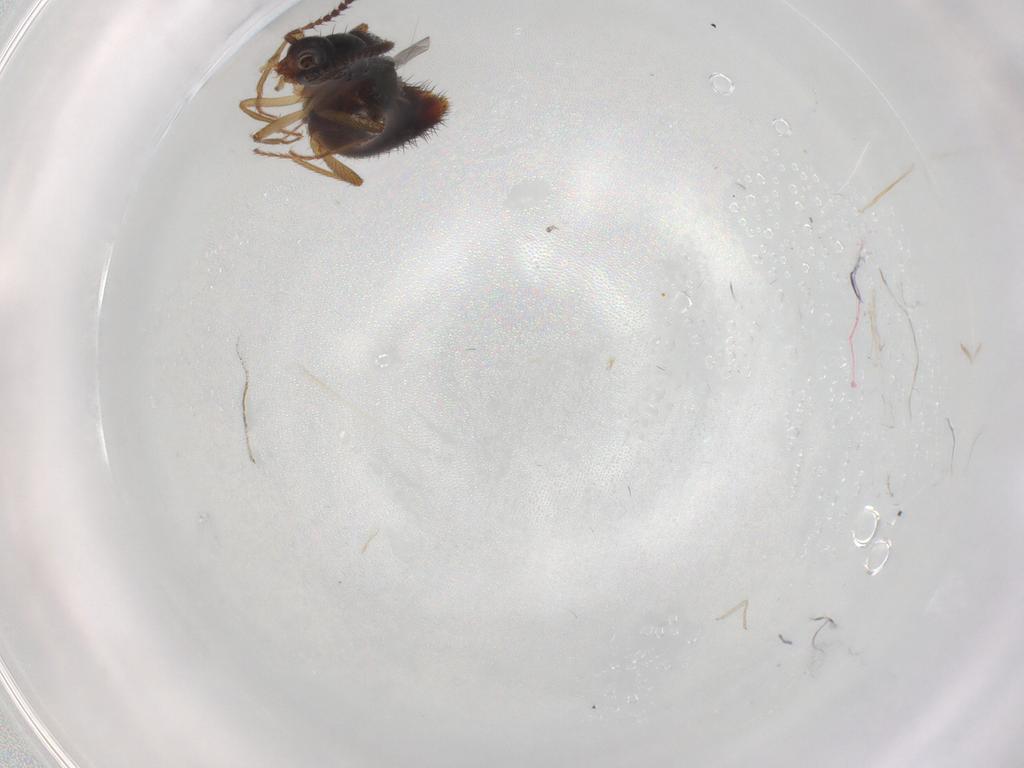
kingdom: Animalia
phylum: Arthropoda
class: Insecta
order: Coleoptera
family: Staphylinidae
